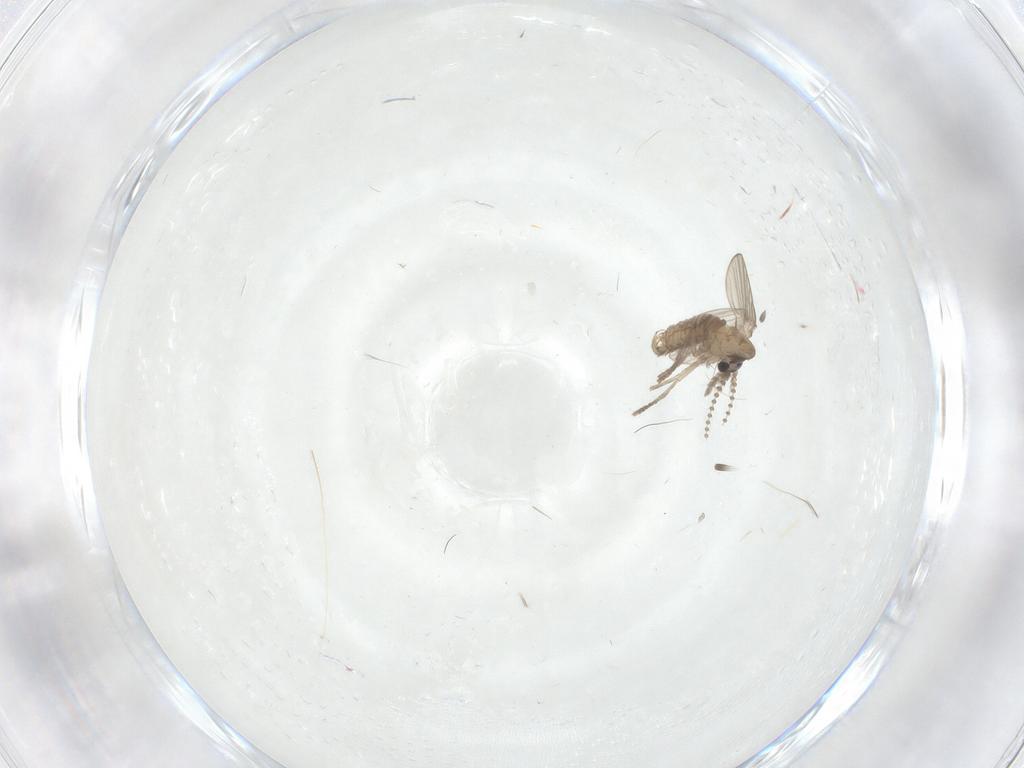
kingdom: Animalia
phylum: Arthropoda
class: Insecta
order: Diptera
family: Psychodidae
